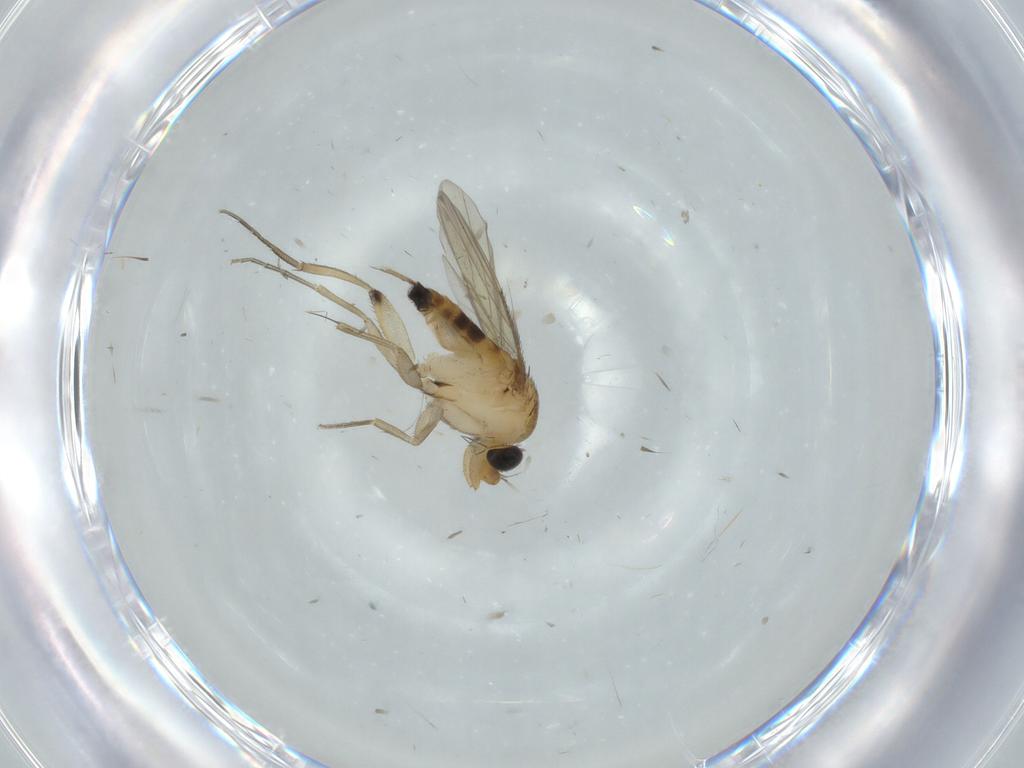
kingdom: Animalia
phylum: Arthropoda
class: Insecta
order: Diptera
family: Phoridae
